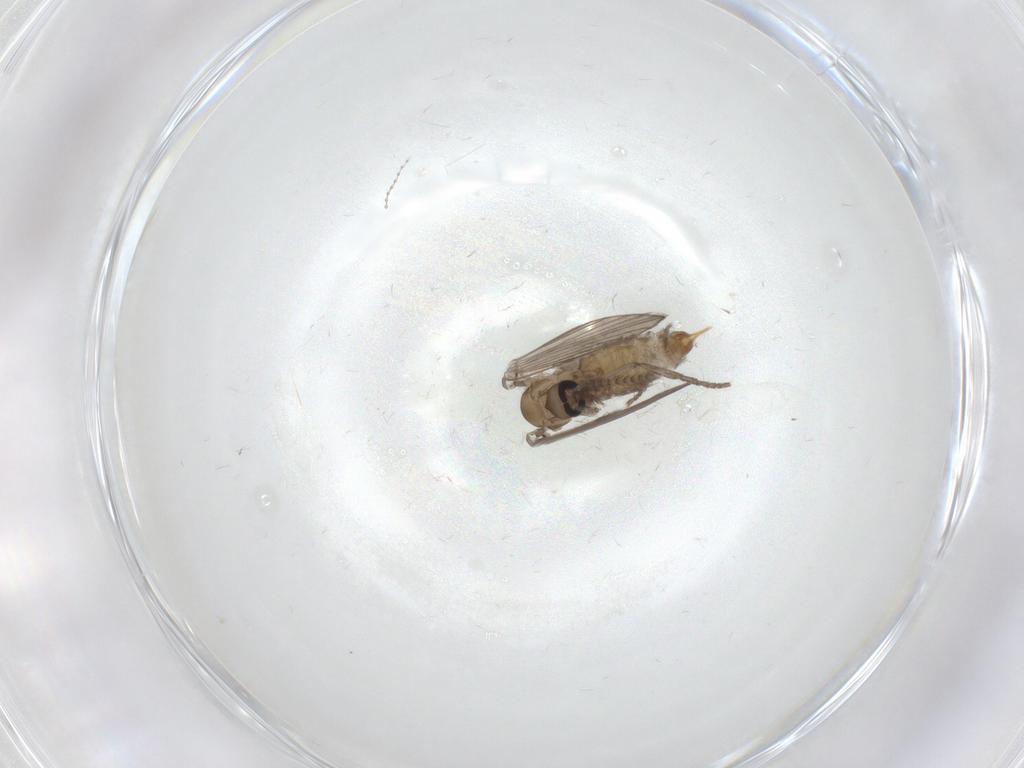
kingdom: Animalia
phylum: Arthropoda
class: Insecta
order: Diptera
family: Psychodidae
